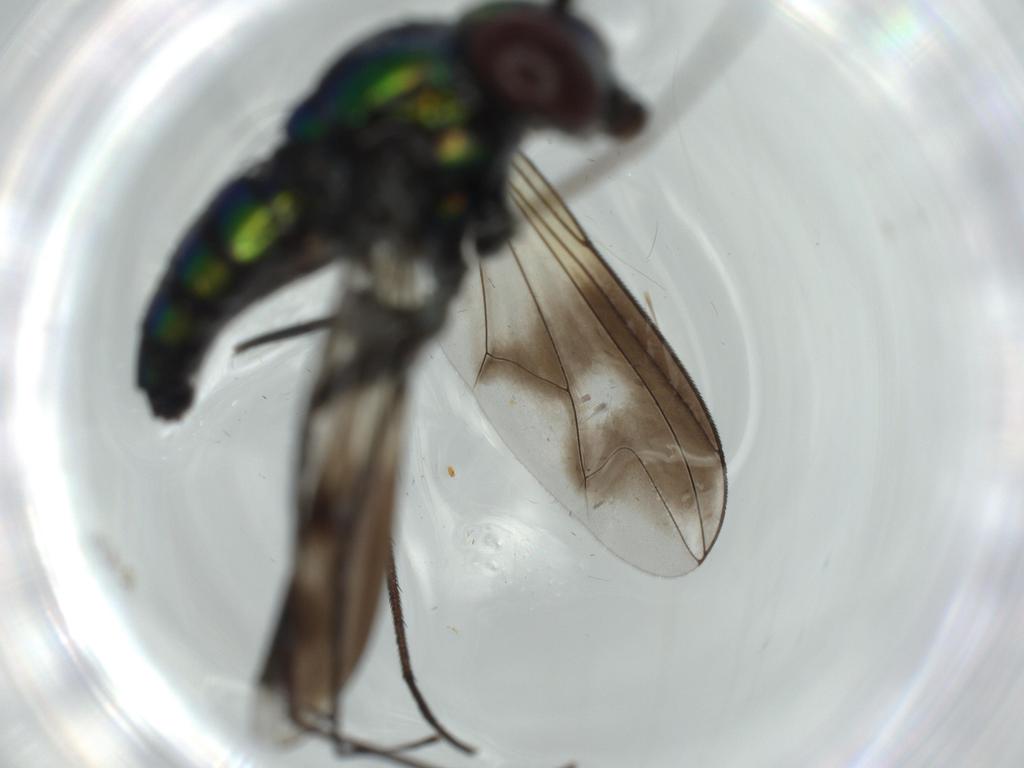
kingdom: Animalia
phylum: Arthropoda
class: Insecta
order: Diptera
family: Dolichopodidae
